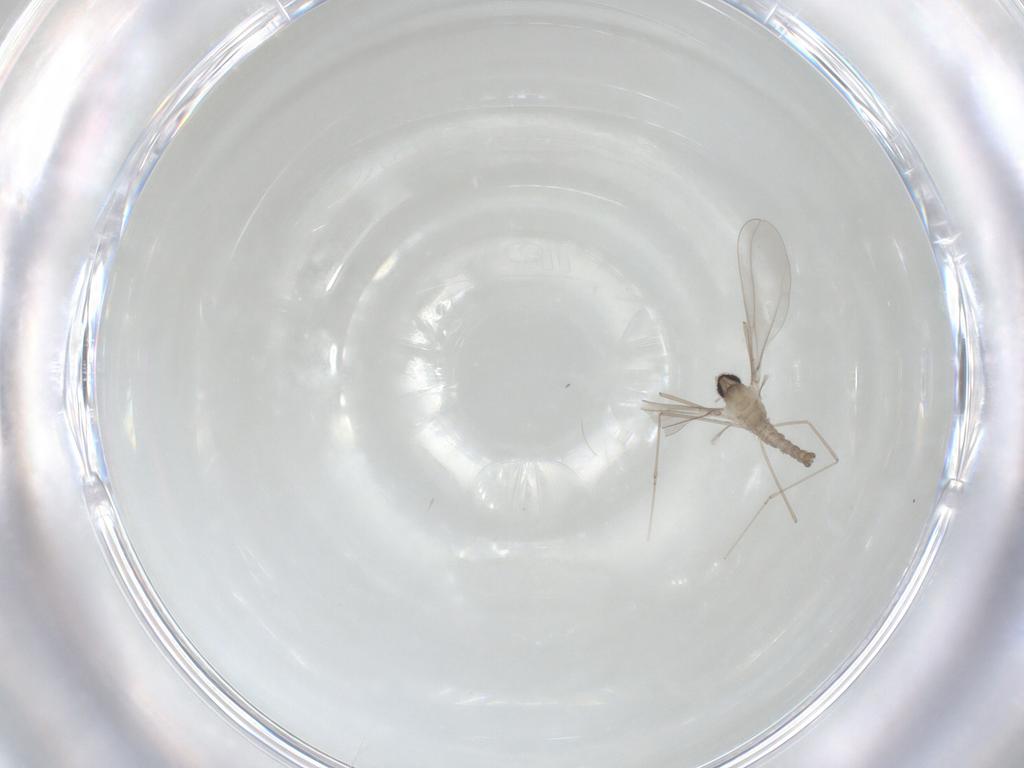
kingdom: Animalia
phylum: Arthropoda
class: Insecta
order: Diptera
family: Cecidomyiidae
